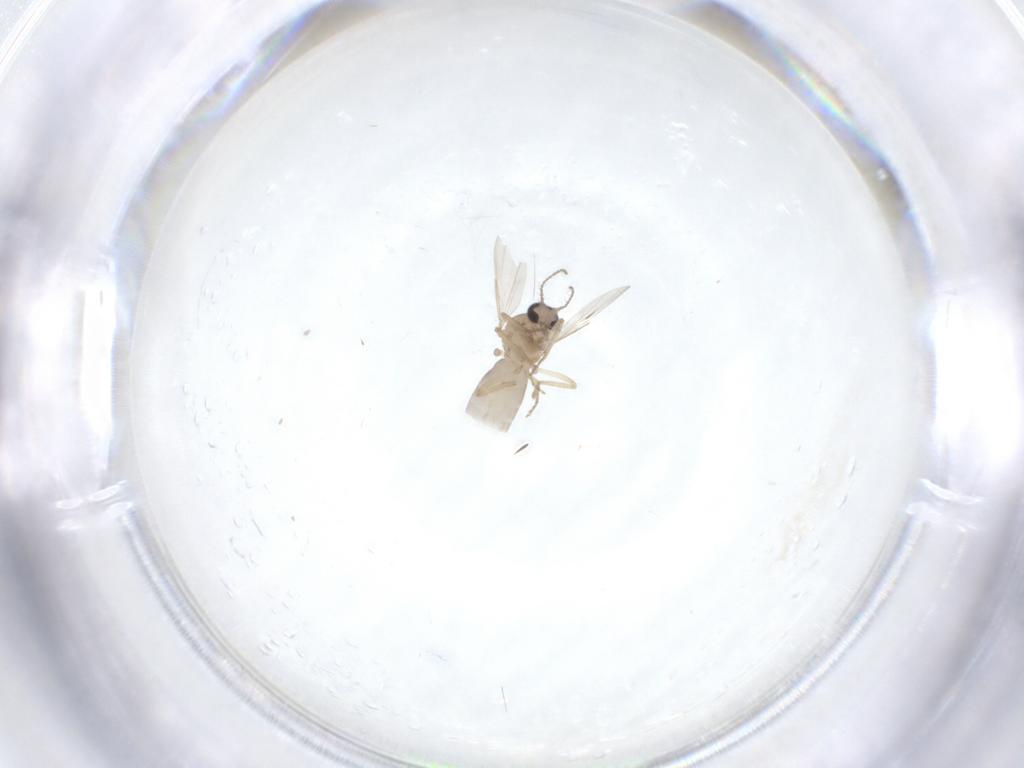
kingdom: Animalia
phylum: Arthropoda
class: Insecta
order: Diptera
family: Ceratopogonidae
